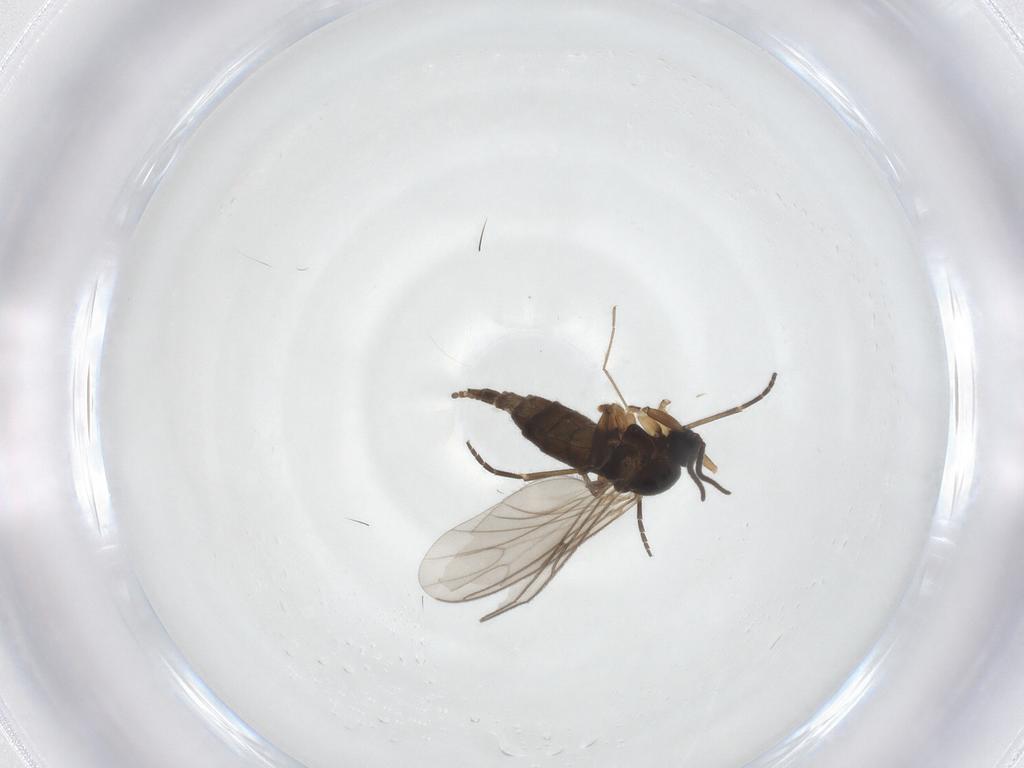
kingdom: Animalia
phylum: Arthropoda
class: Insecta
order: Diptera
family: Sciaridae
